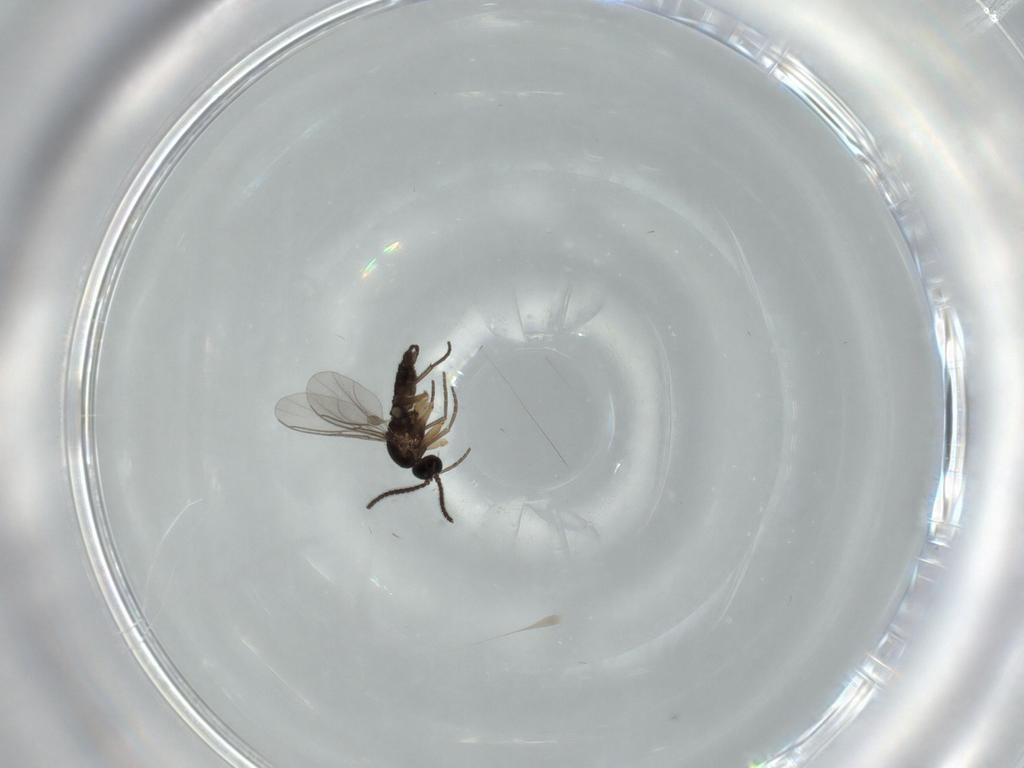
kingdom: Animalia
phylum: Arthropoda
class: Insecta
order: Diptera
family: Sciaridae
